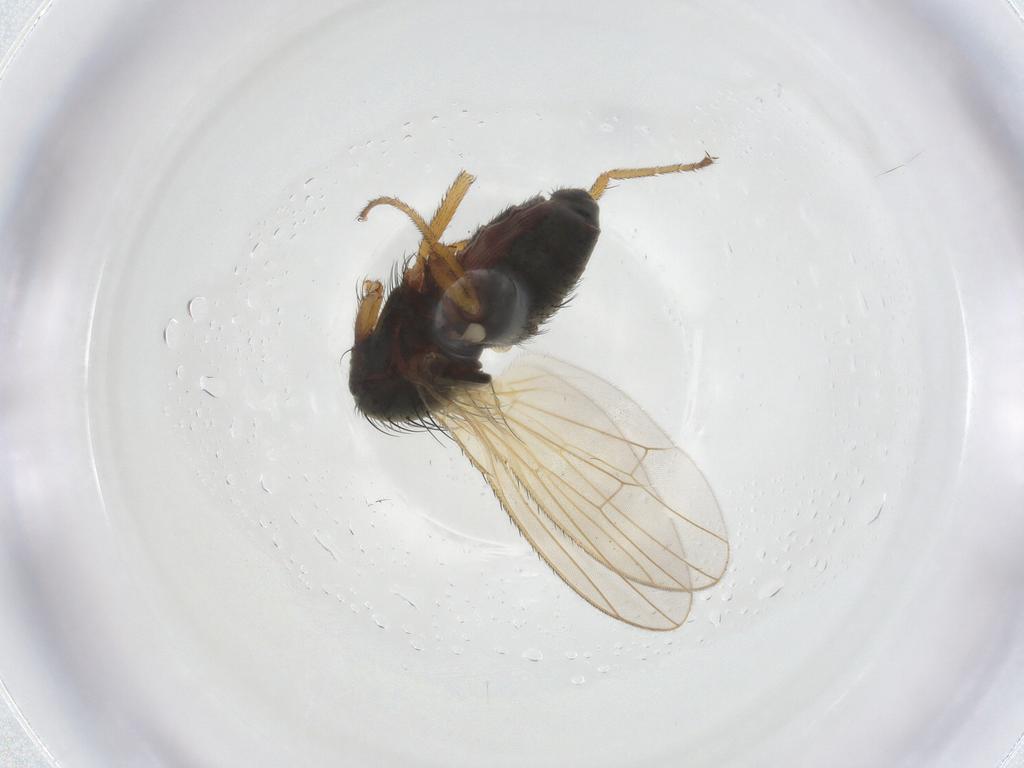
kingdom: Animalia
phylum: Arthropoda
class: Insecta
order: Diptera
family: Heleomyzidae
